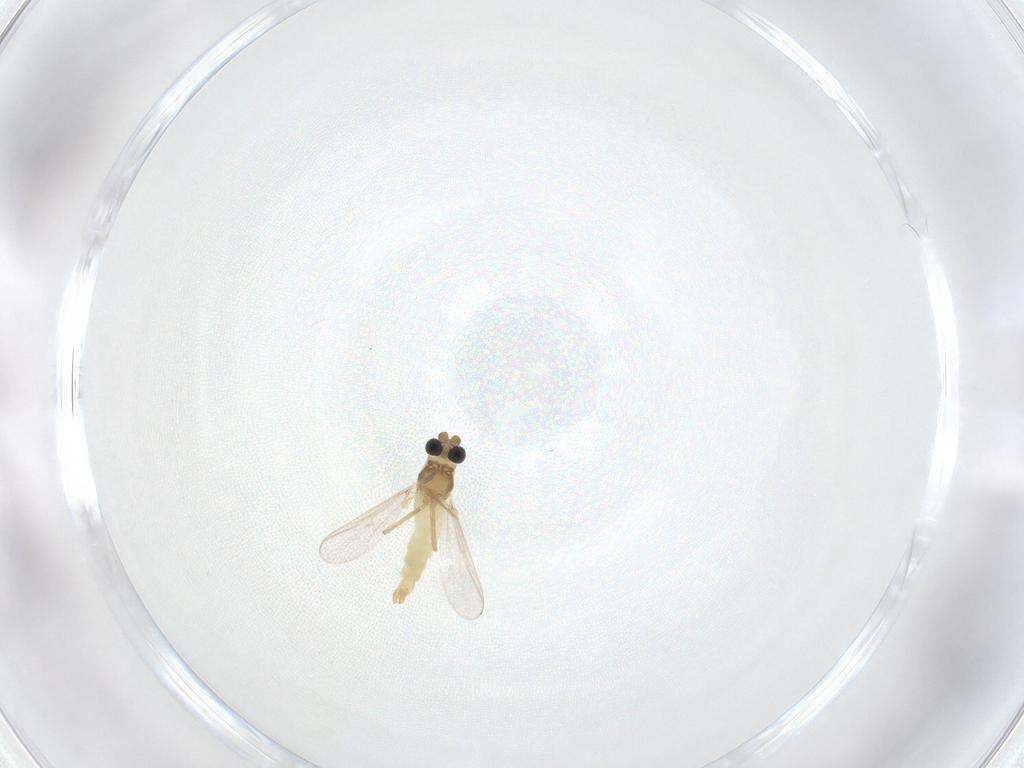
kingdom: Animalia
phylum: Arthropoda
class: Insecta
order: Diptera
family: Chironomidae
